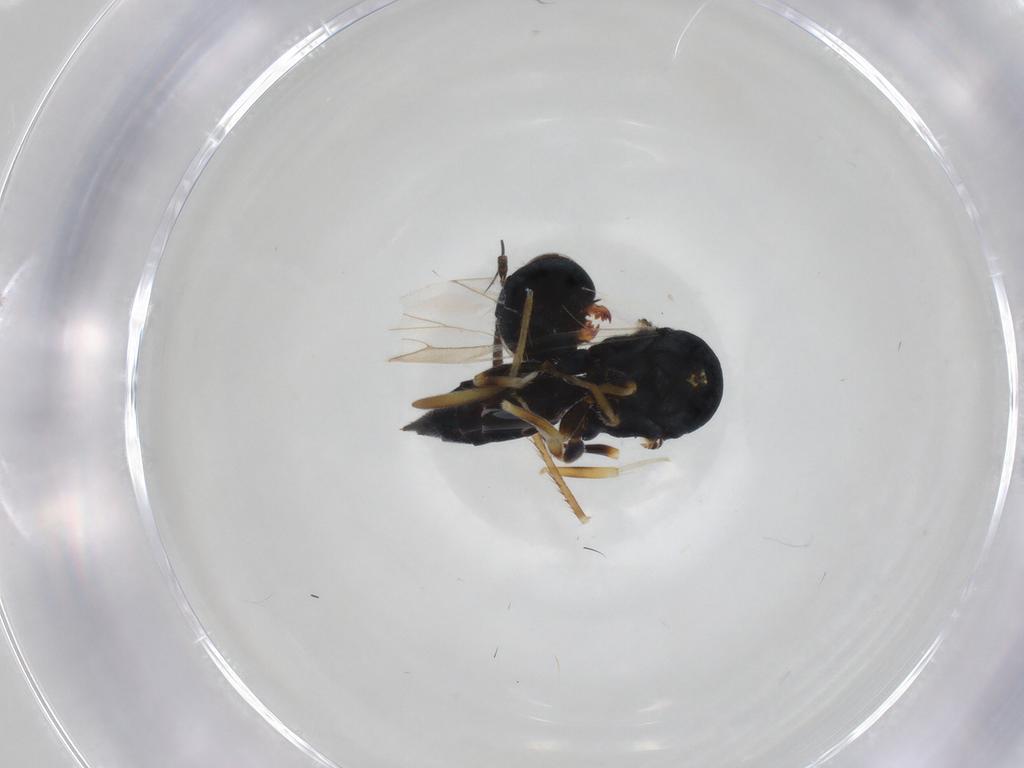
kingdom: Animalia
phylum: Arthropoda
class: Insecta
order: Hymenoptera
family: Pteromalidae
